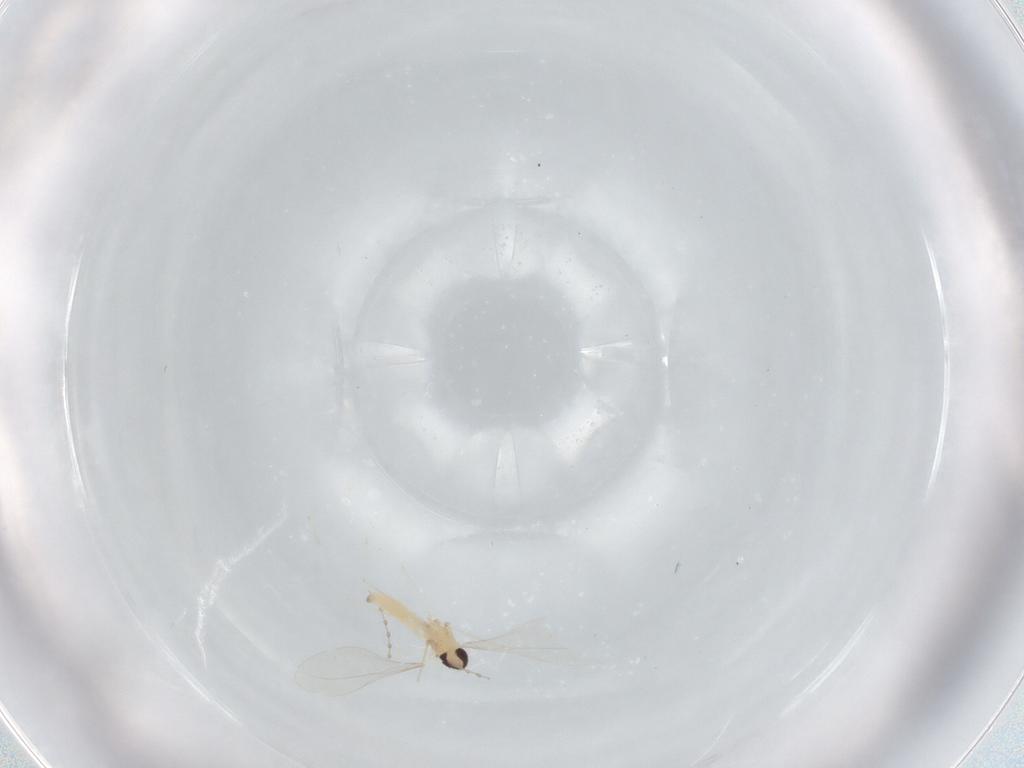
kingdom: Animalia
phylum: Arthropoda
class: Insecta
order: Diptera
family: Cecidomyiidae
